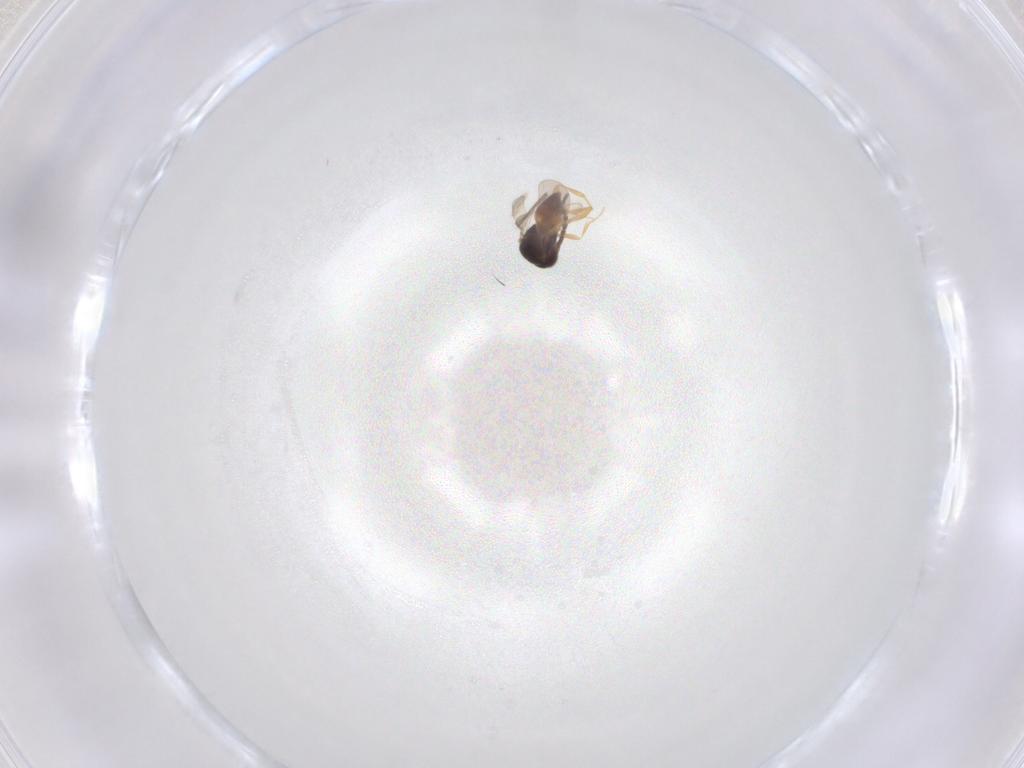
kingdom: Animalia
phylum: Arthropoda
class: Insecta
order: Hymenoptera
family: Ceraphronidae
